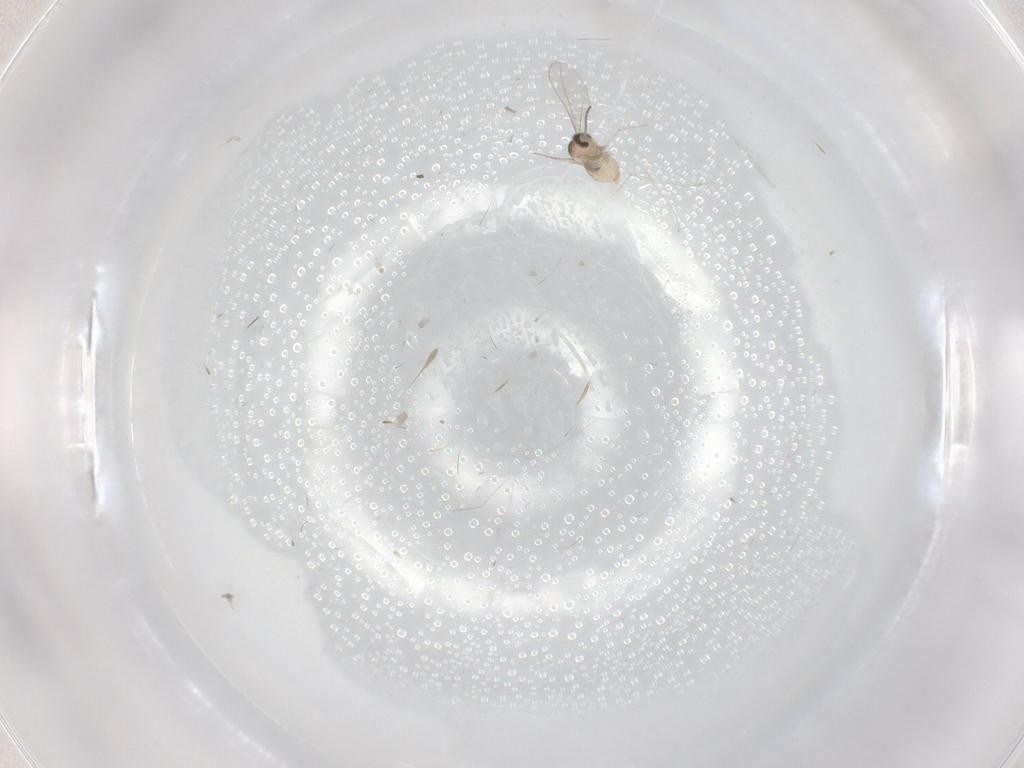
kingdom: Animalia
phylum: Arthropoda
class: Insecta
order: Diptera
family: Cecidomyiidae
